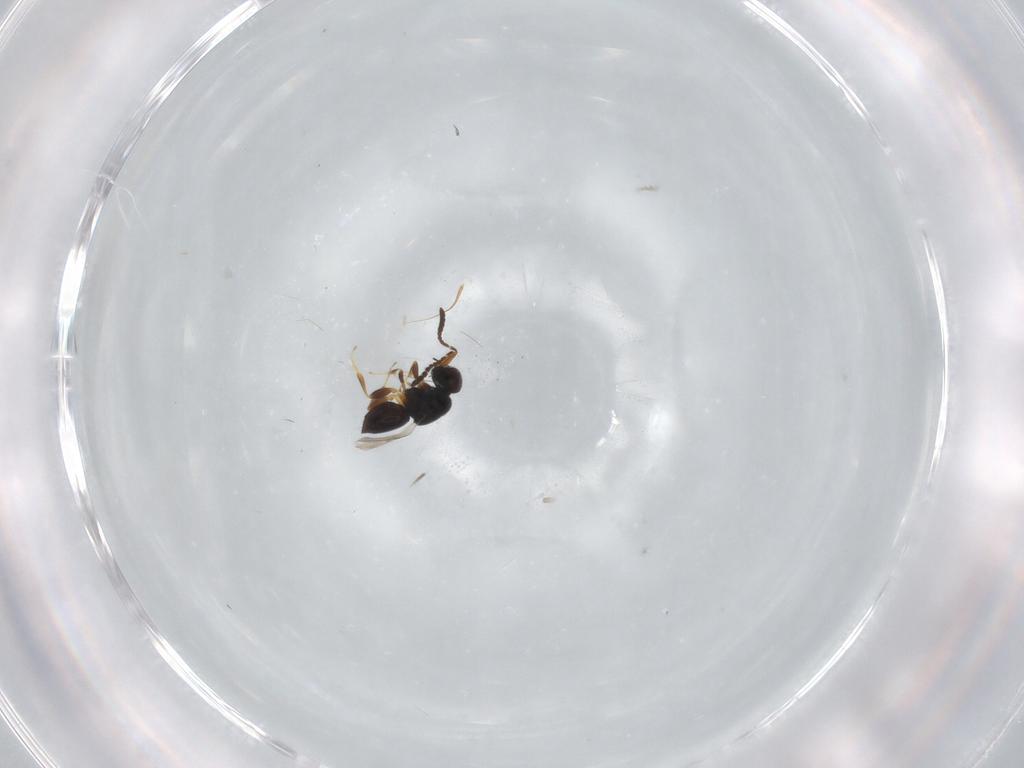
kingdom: Animalia
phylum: Arthropoda
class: Insecta
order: Hymenoptera
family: Ceraphronidae
